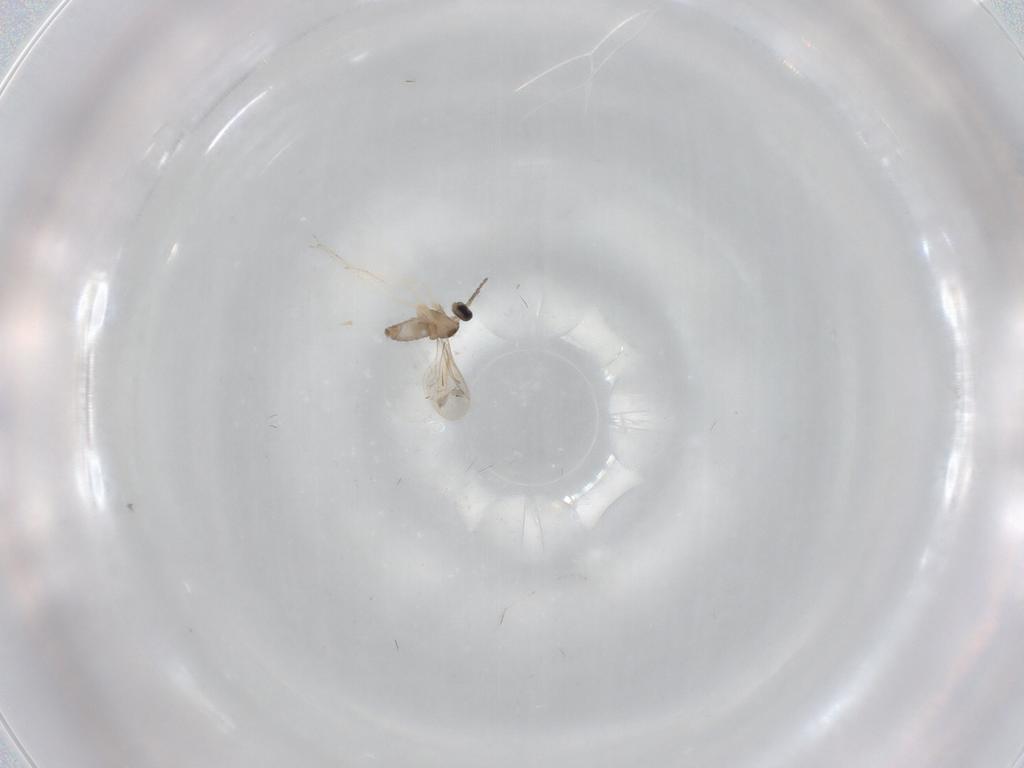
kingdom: Animalia
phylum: Arthropoda
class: Insecta
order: Diptera
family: Cecidomyiidae
